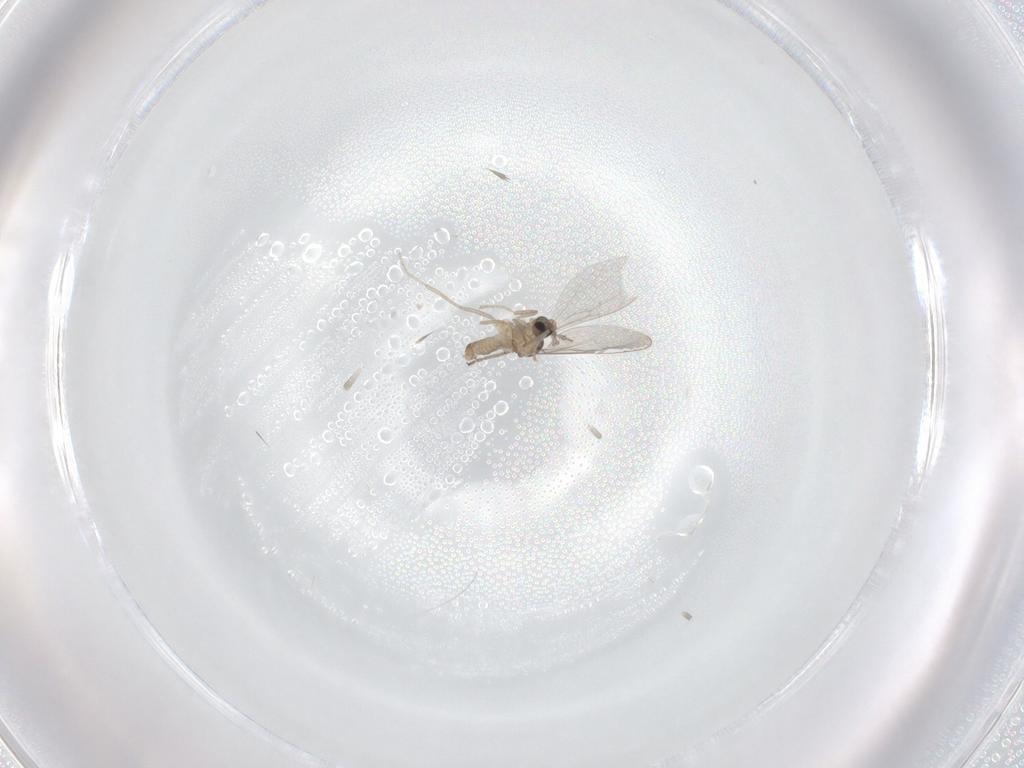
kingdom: Animalia
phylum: Arthropoda
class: Insecta
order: Diptera
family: Cecidomyiidae
